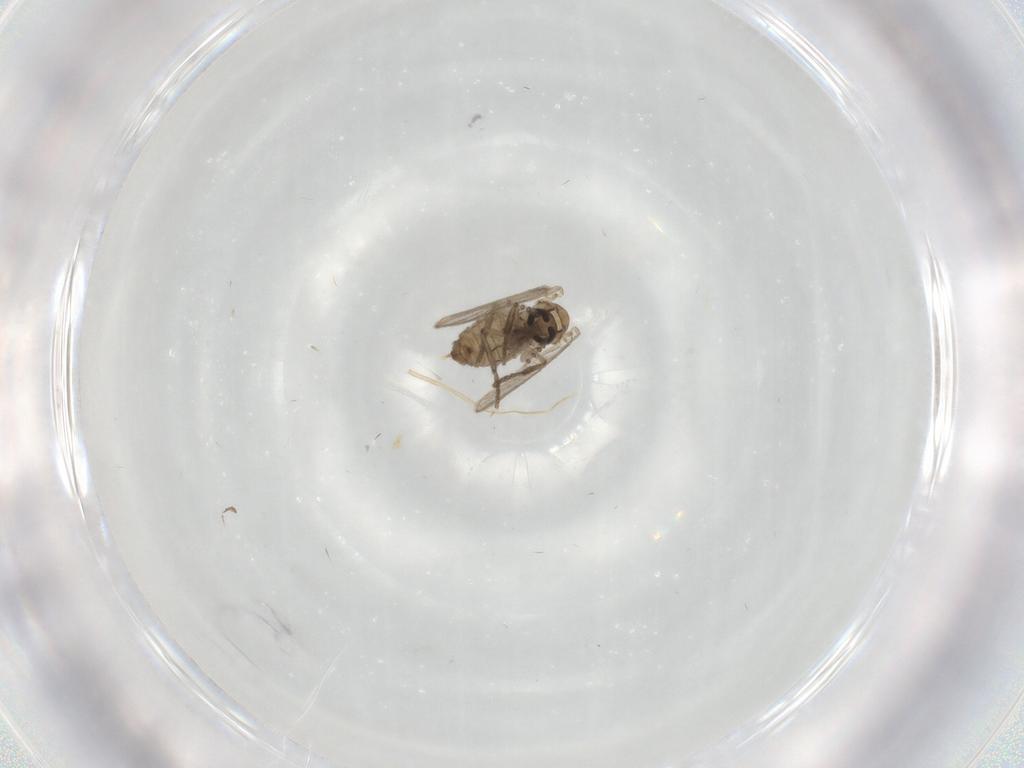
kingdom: Animalia
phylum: Arthropoda
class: Insecta
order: Diptera
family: Psychodidae
